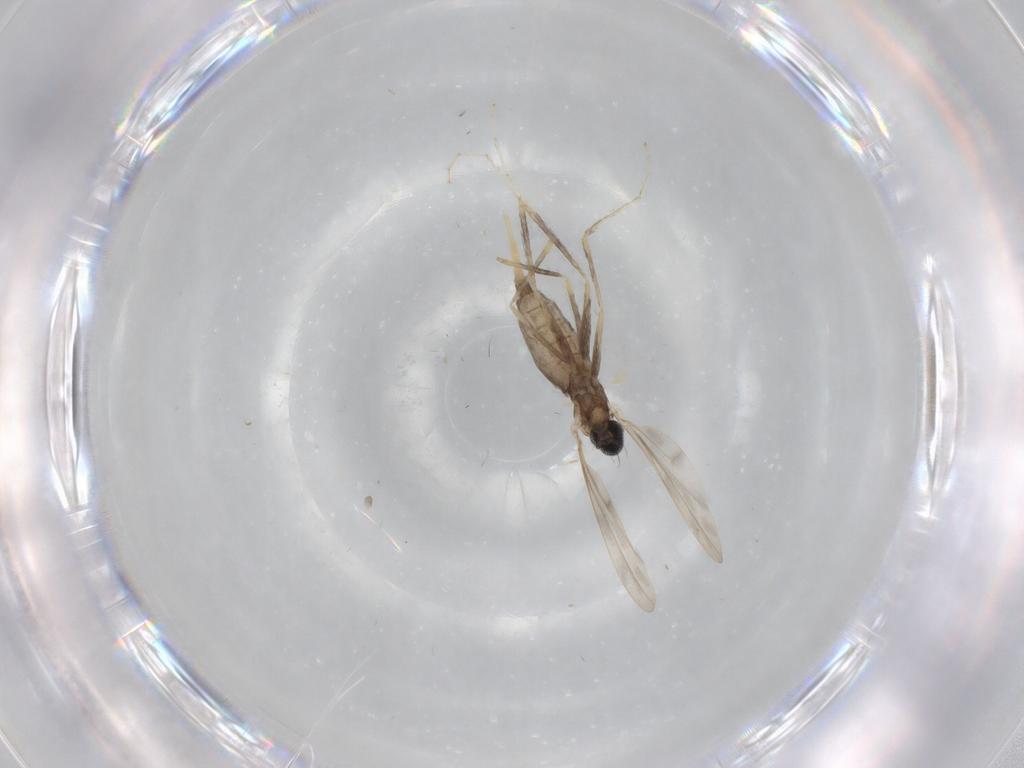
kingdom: Animalia
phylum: Arthropoda
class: Insecta
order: Diptera
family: Cecidomyiidae
